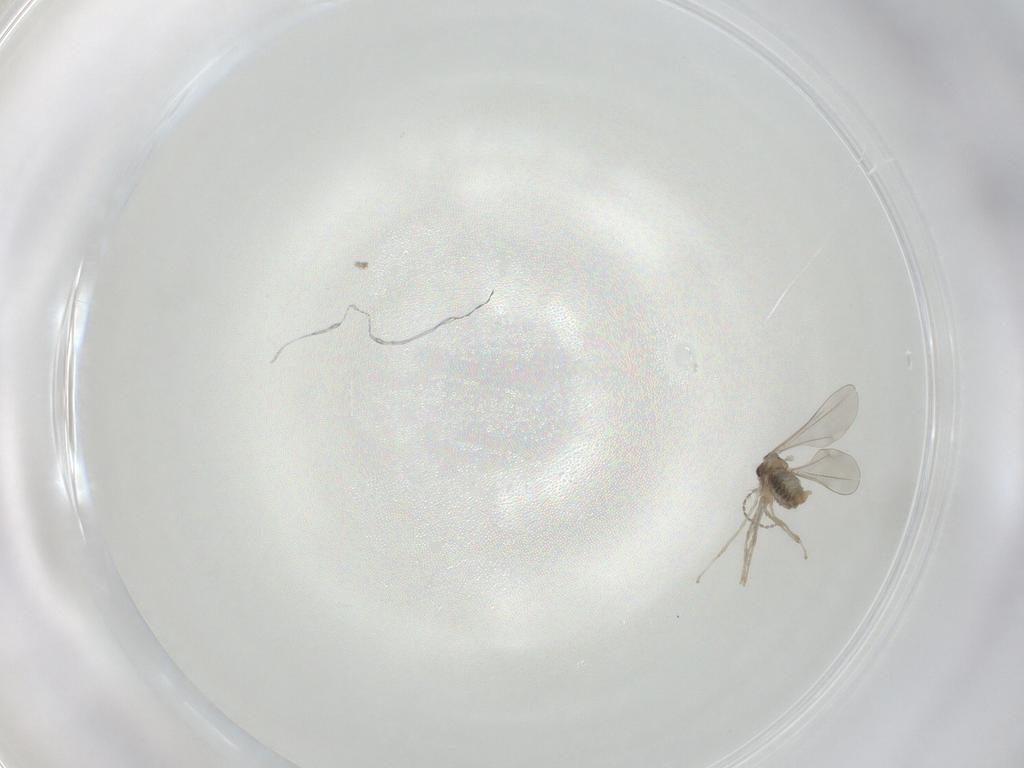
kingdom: Animalia
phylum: Arthropoda
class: Insecta
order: Diptera
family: Cecidomyiidae
